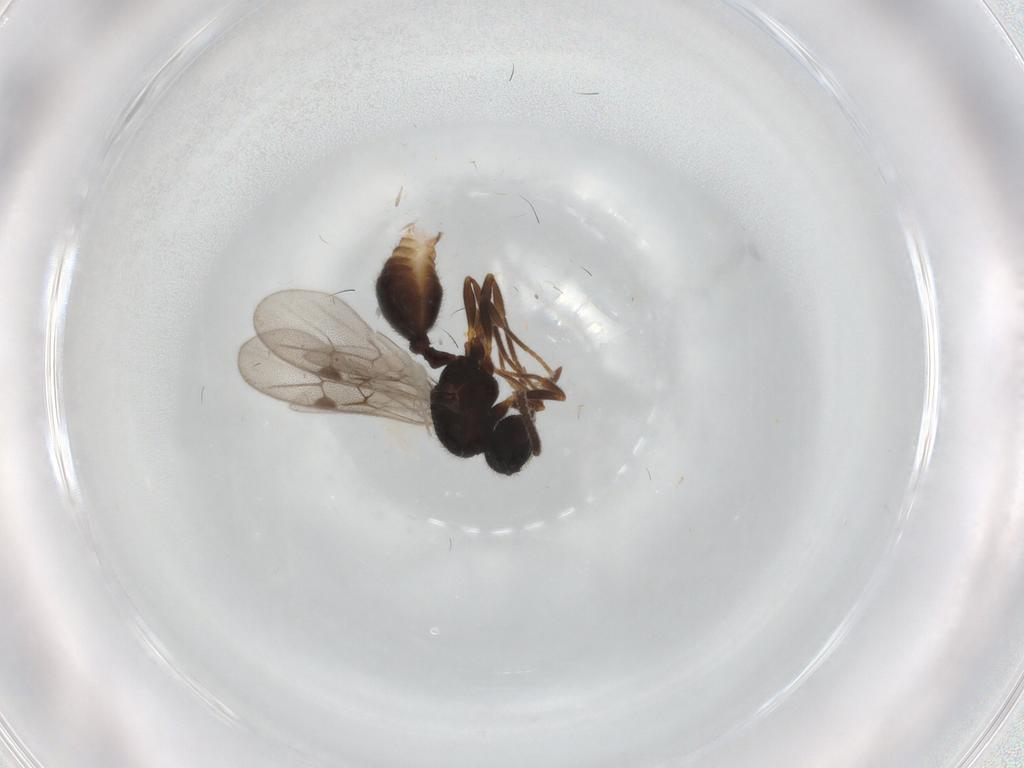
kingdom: Animalia
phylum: Arthropoda
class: Insecta
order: Hymenoptera
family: Formicidae
